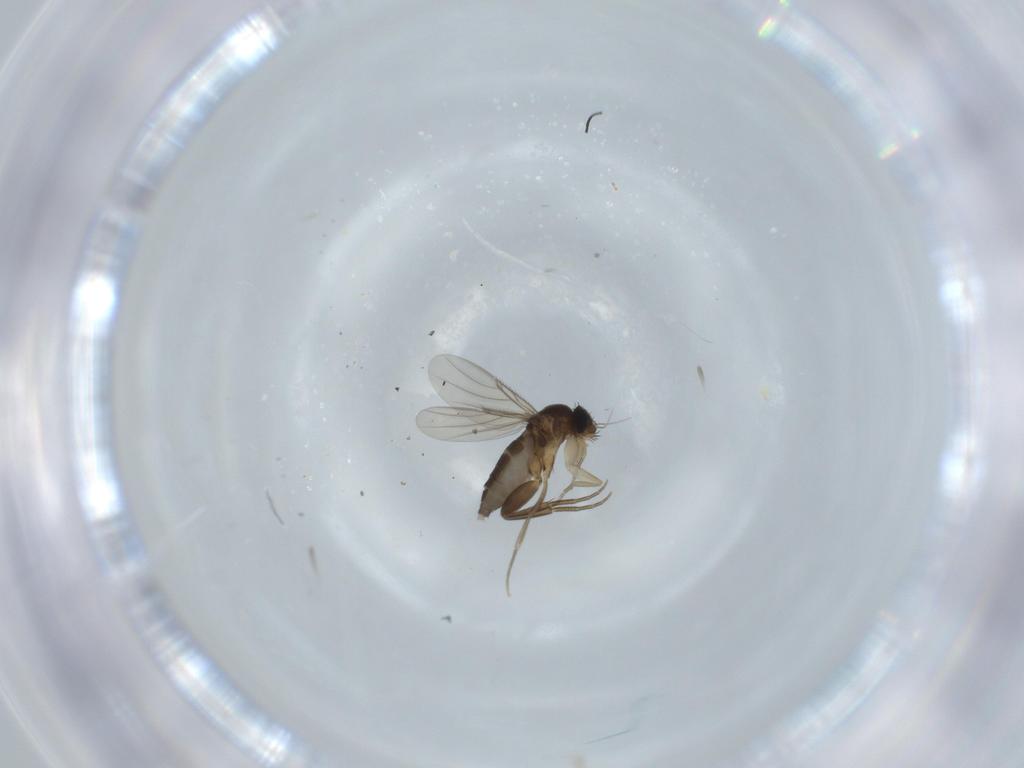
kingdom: Animalia
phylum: Arthropoda
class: Insecta
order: Diptera
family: Phoridae
